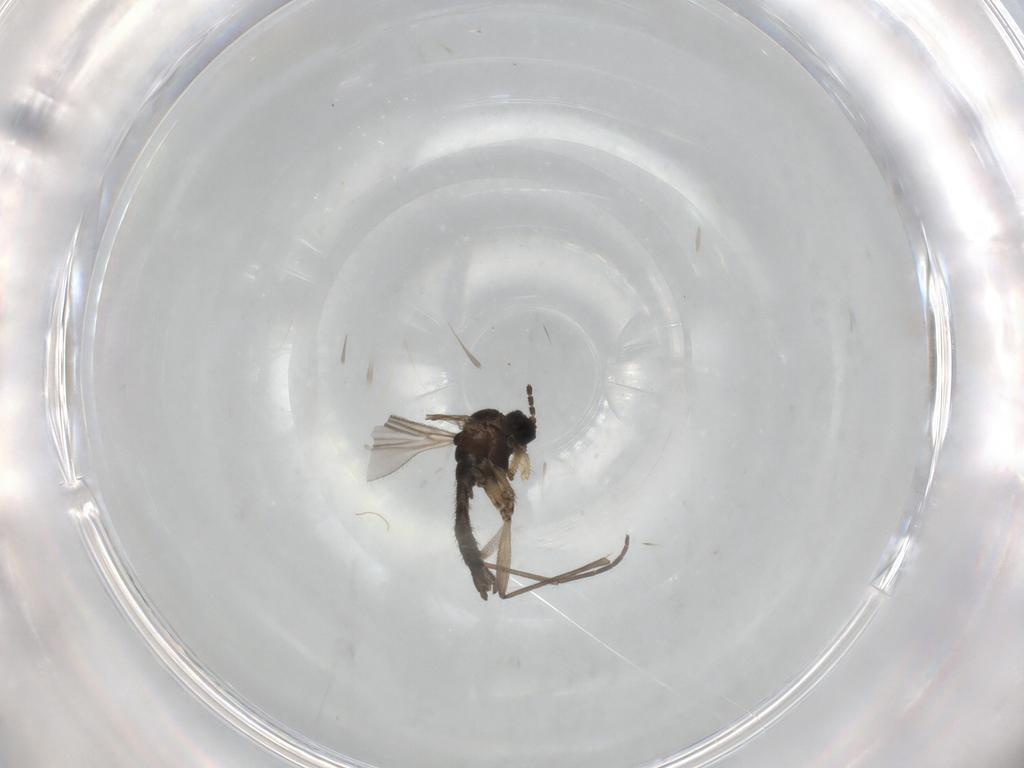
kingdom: Animalia
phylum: Arthropoda
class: Insecta
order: Diptera
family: Sciaridae
